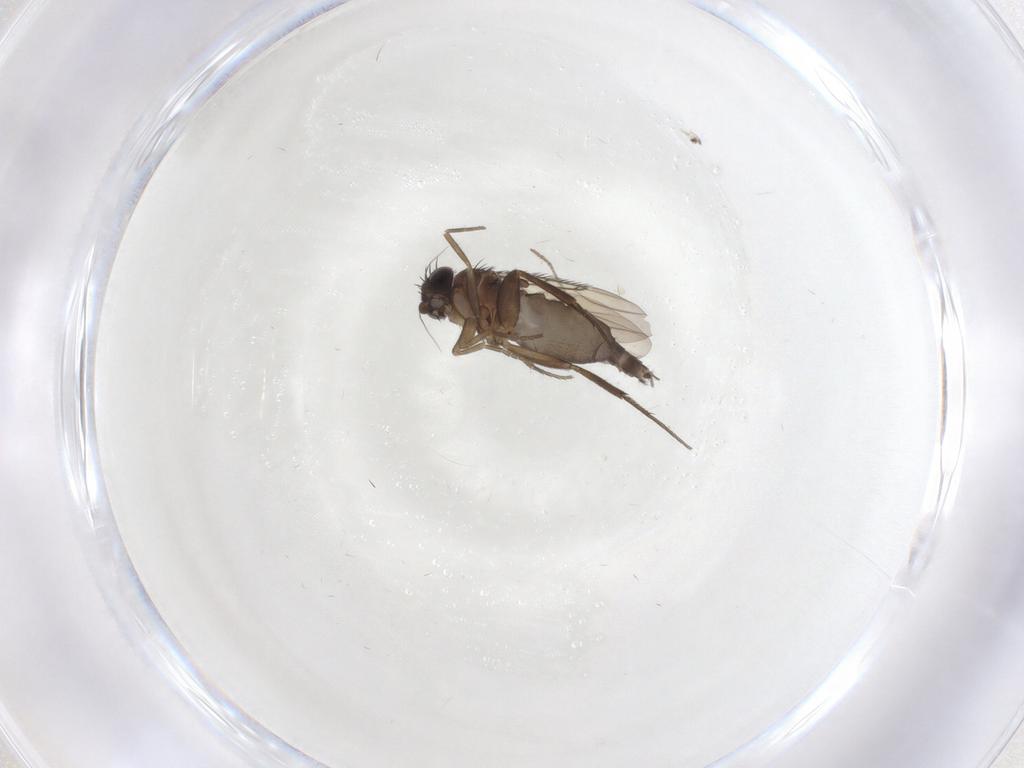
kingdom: Animalia
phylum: Arthropoda
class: Insecta
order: Diptera
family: Phoridae
